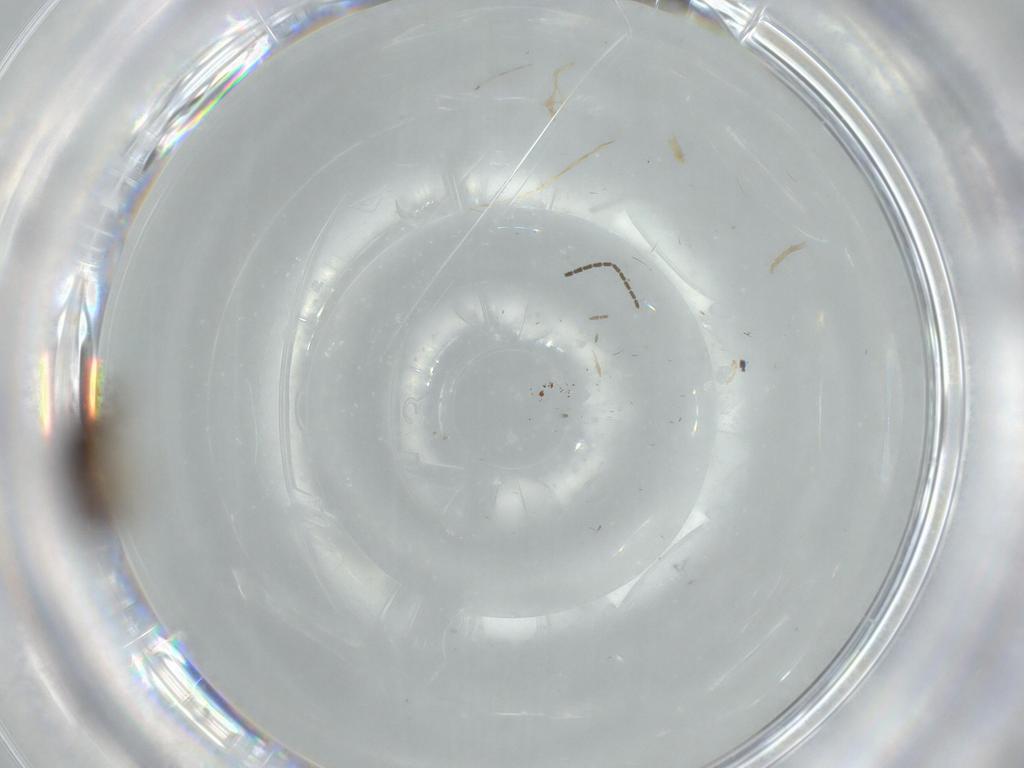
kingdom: Animalia
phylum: Arthropoda
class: Insecta
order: Hemiptera
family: Ceratocombidae
